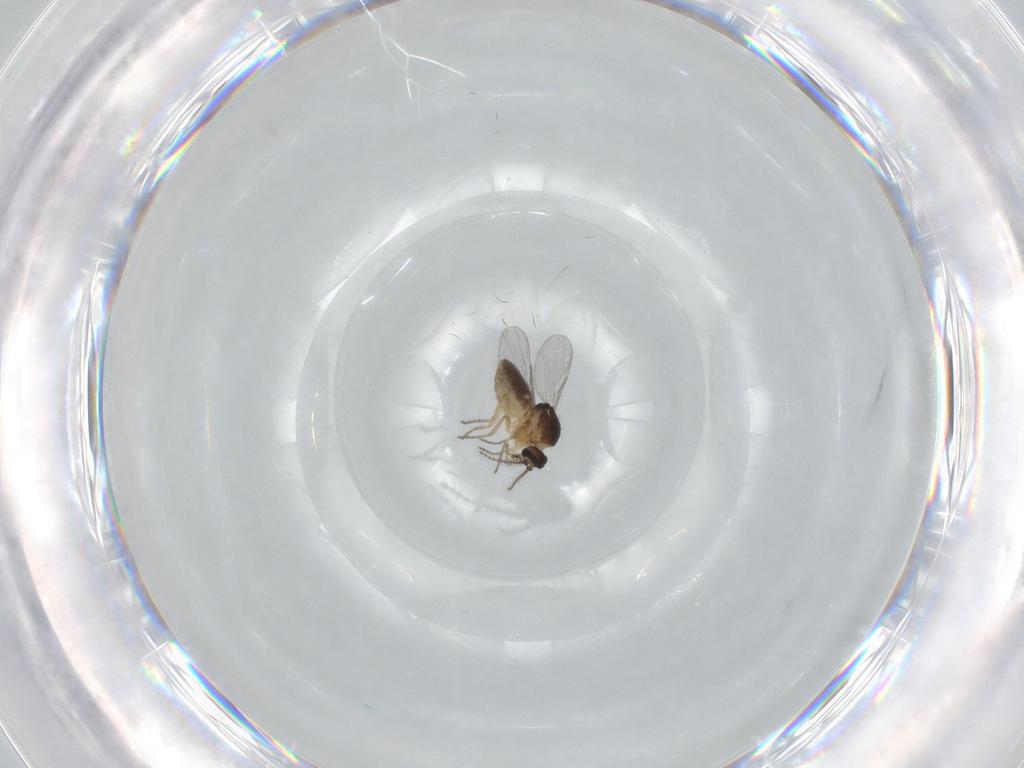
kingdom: Animalia
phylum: Arthropoda
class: Insecta
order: Diptera
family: Ceratopogonidae
